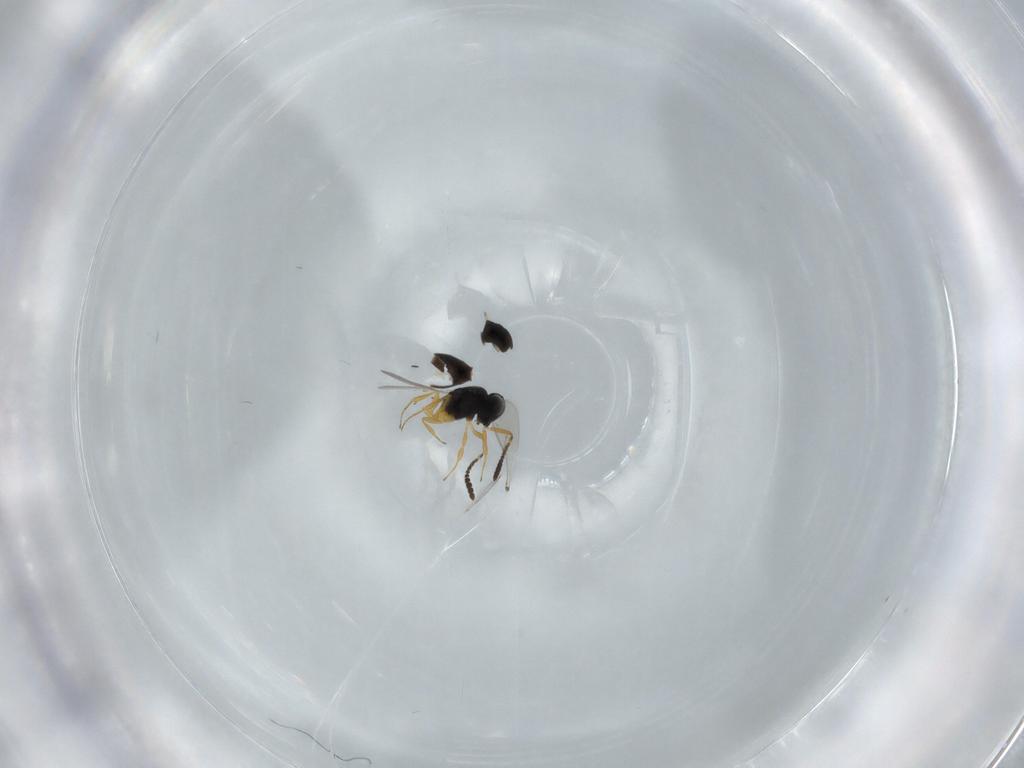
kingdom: Animalia
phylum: Arthropoda
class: Insecta
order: Hymenoptera
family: Scelionidae
